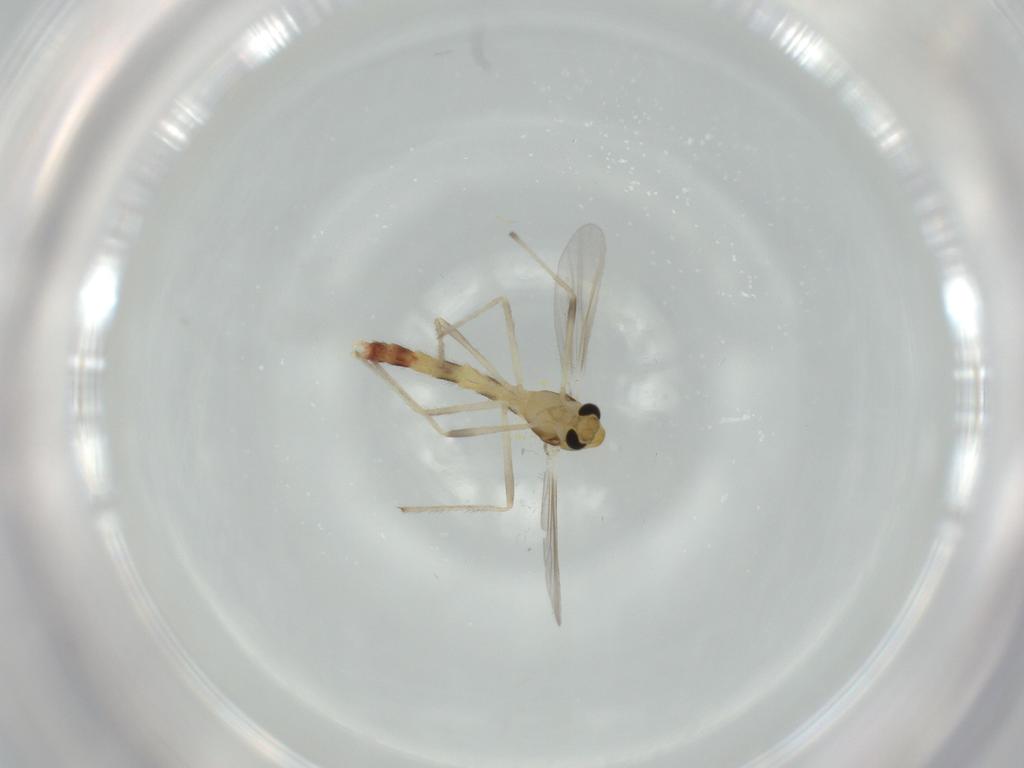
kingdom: Animalia
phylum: Arthropoda
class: Insecta
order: Diptera
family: Chironomidae
